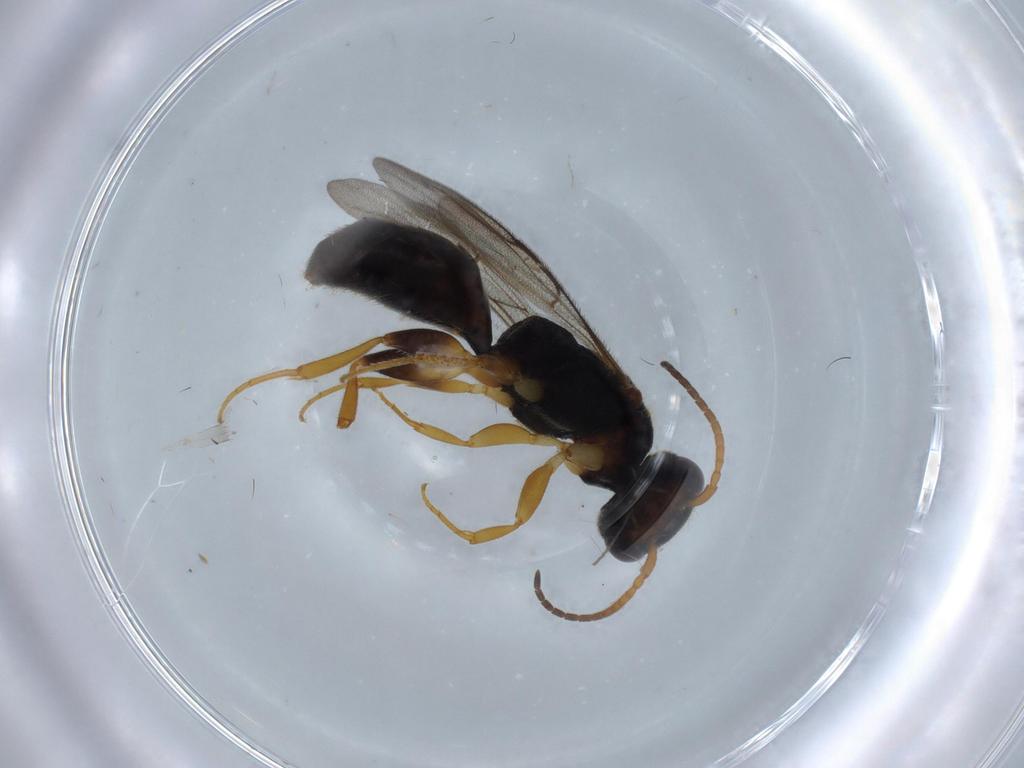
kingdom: Animalia
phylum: Arthropoda
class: Insecta
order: Hymenoptera
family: Bethylidae
